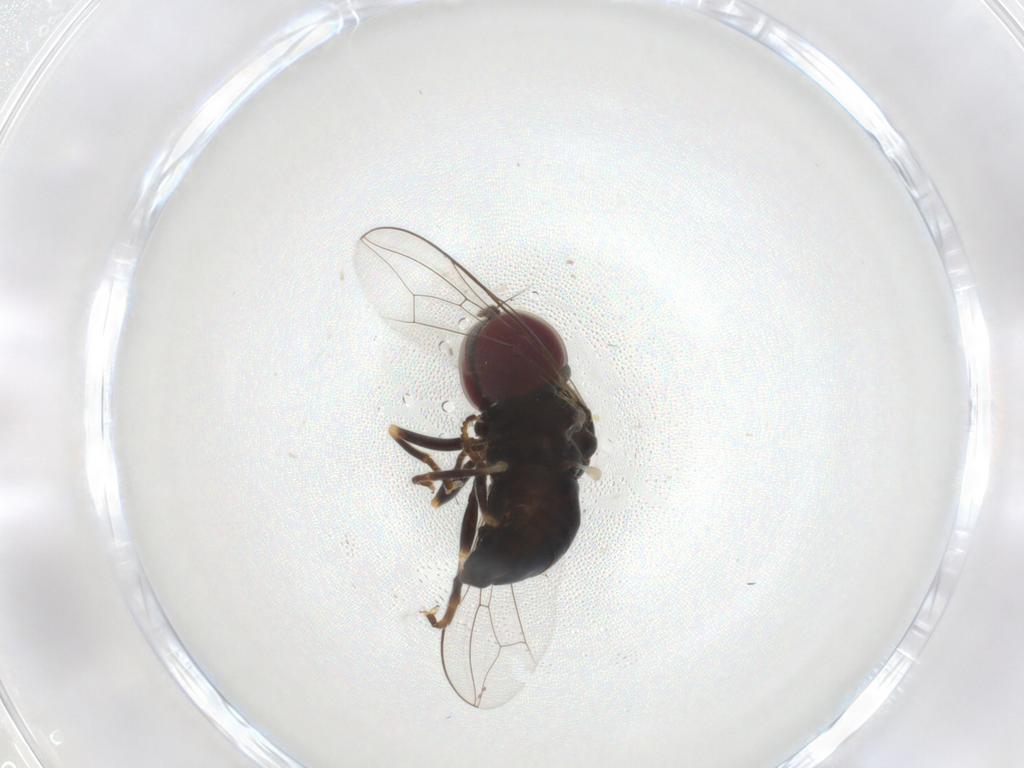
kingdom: Animalia
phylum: Arthropoda
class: Insecta
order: Diptera
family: Pipunculidae
